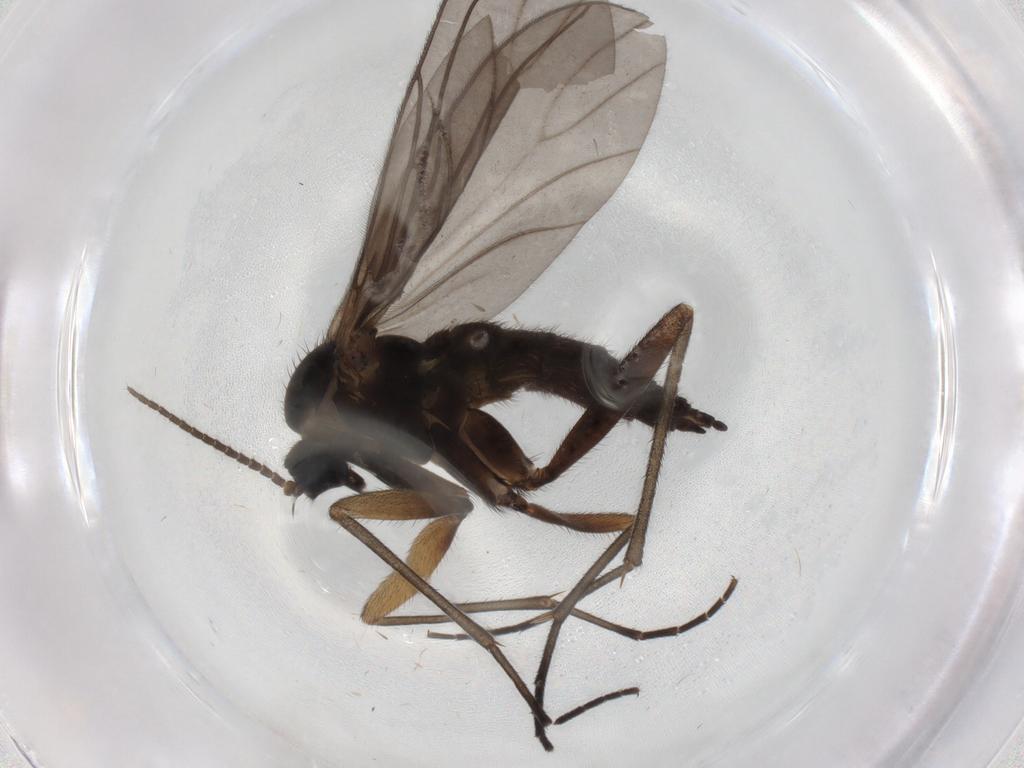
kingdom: Animalia
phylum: Arthropoda
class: Insecta
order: Diptera
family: Sciaridae
